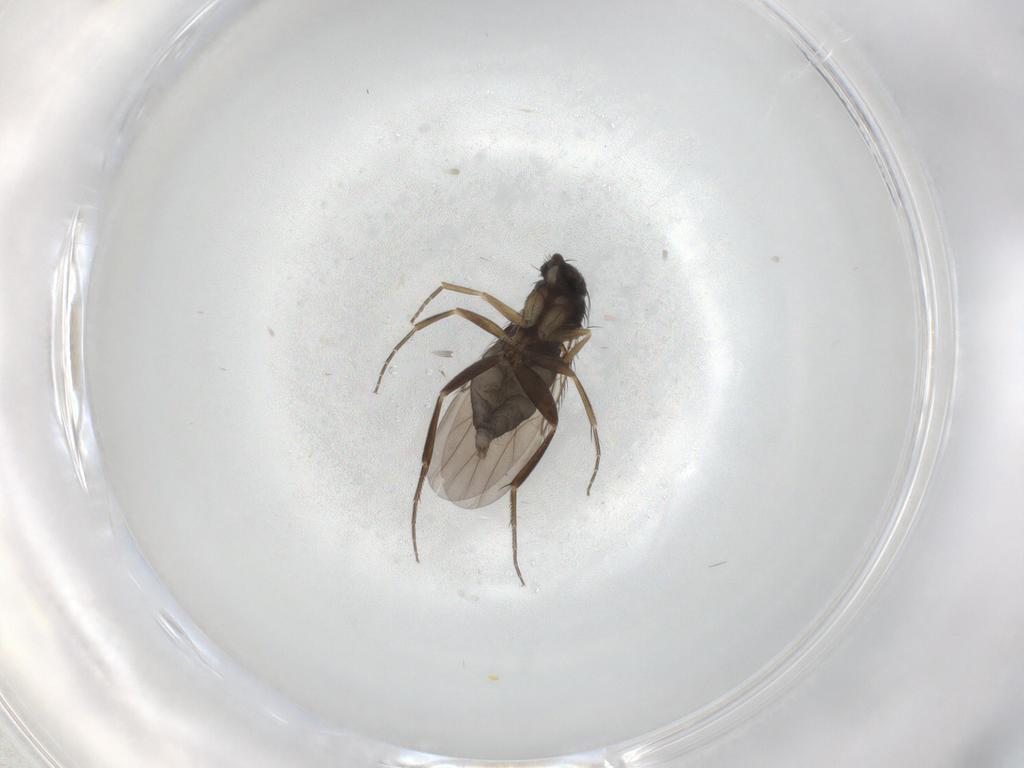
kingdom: Animalia
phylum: Arthropoda
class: Insecta
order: Diptera
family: Phoridae
